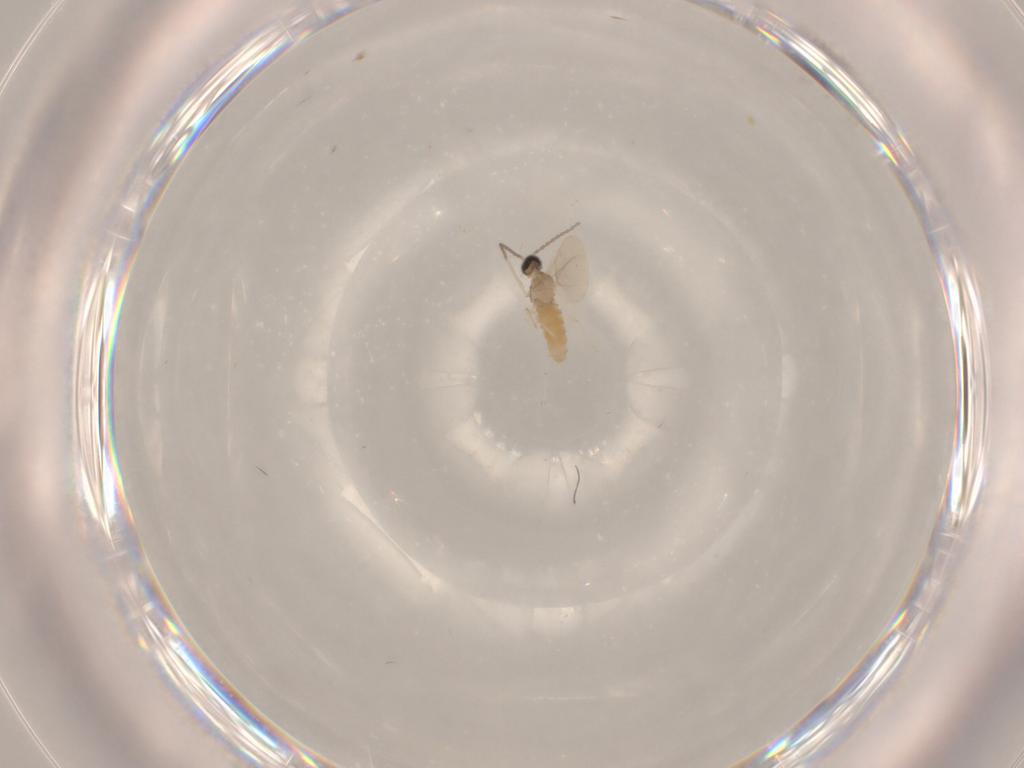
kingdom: Animalia
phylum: Arthropoda
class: Insecta
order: Diptera
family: Cecidomyiidae
